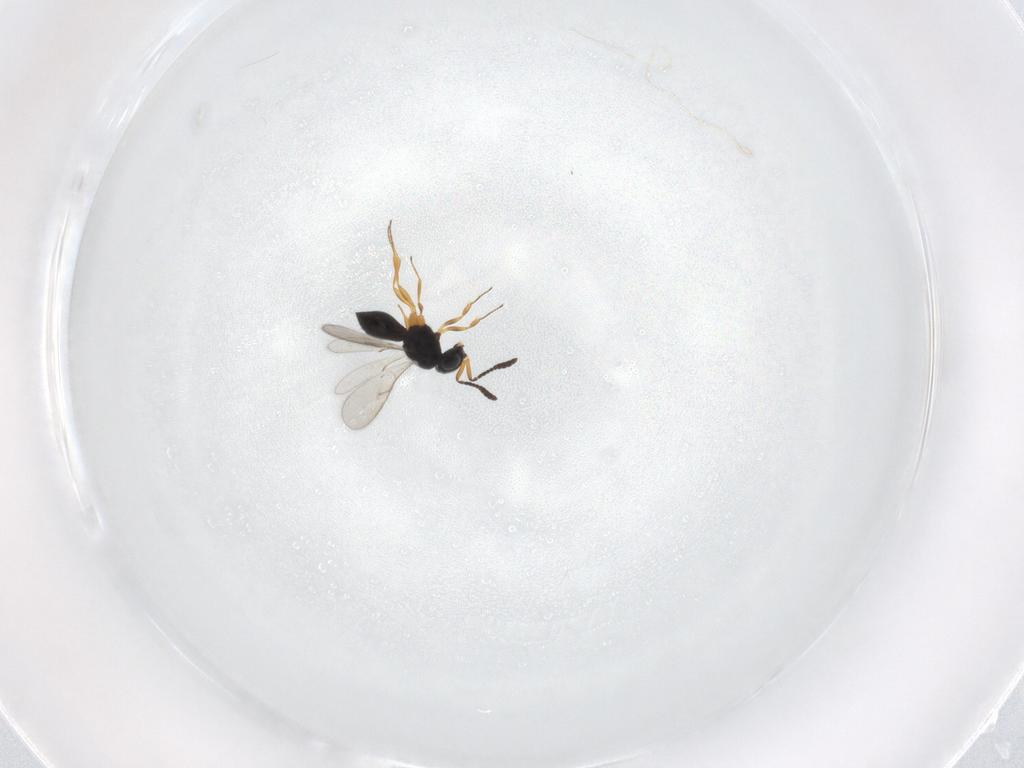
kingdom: Animalia
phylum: Arthropoda
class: Insecta
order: Hymenoptera
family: Scelionidae
